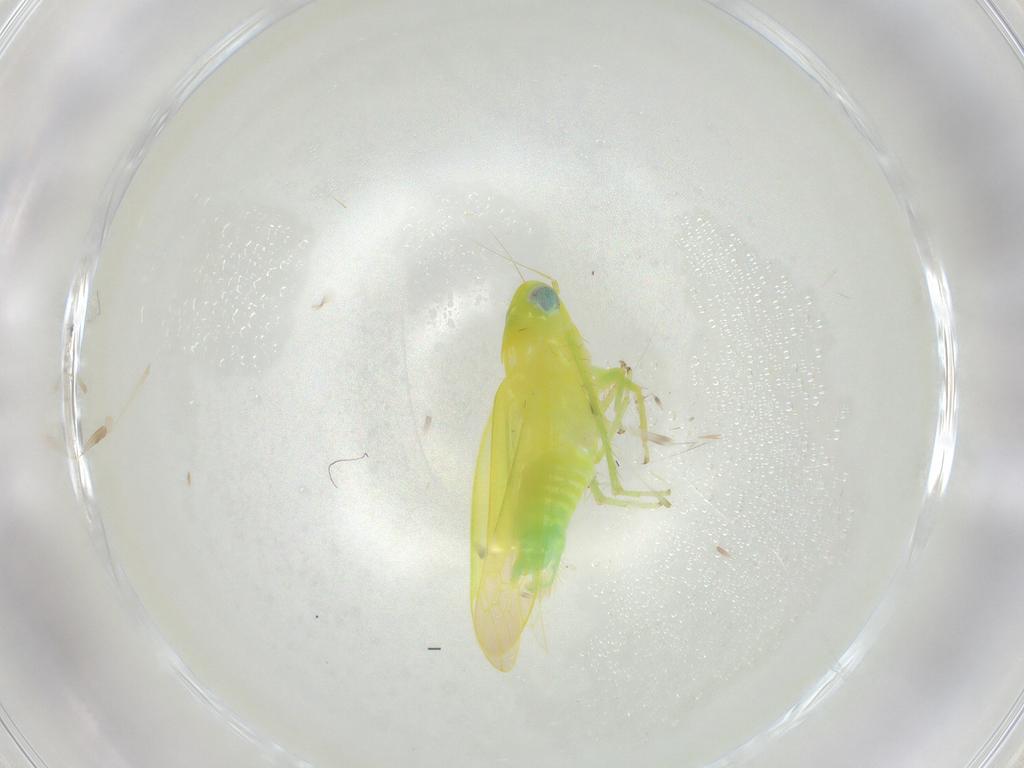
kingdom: Animalia
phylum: Arthropoda
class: Insecta
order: Hemiptera
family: Cicadellidae
